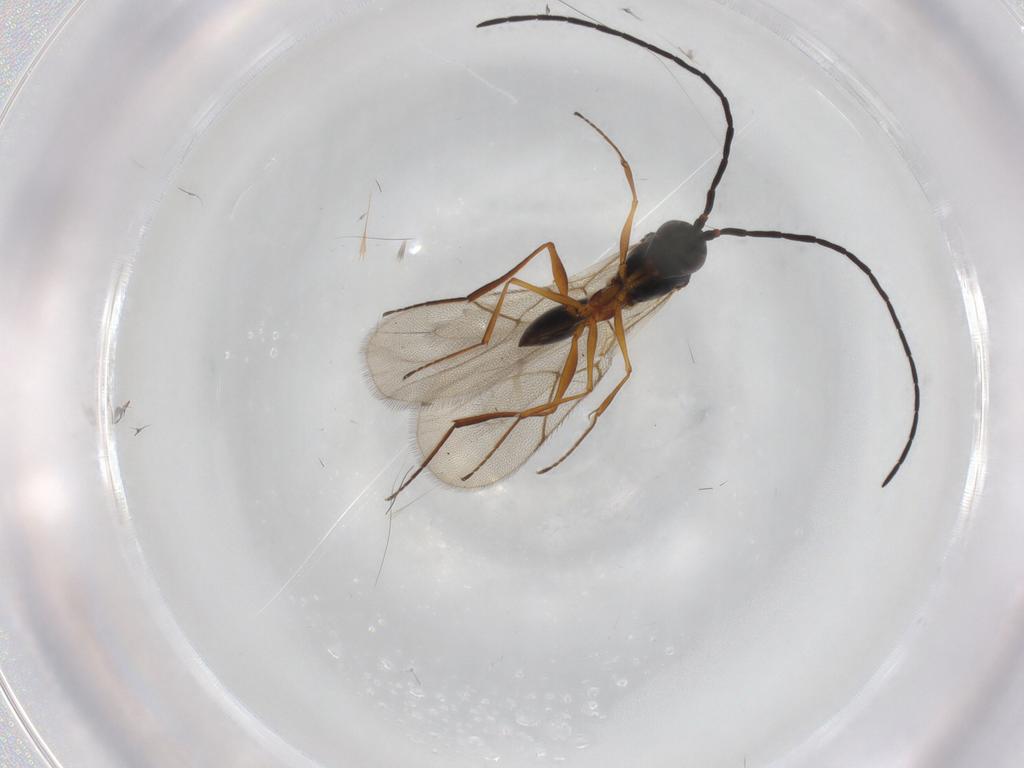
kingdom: Animalia
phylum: Arthropoda
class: Insecta
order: Hymenoptera
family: Figitidae
